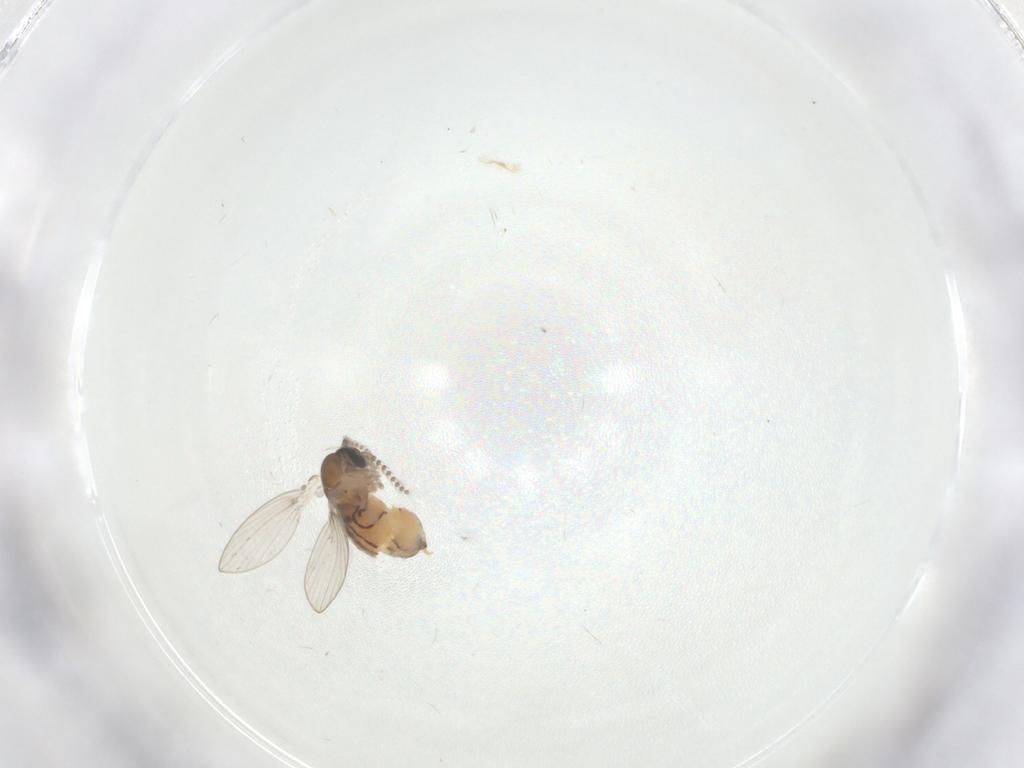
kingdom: Animalia
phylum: Arthropoda
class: Insecta
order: Diptera
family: Psychodidae
